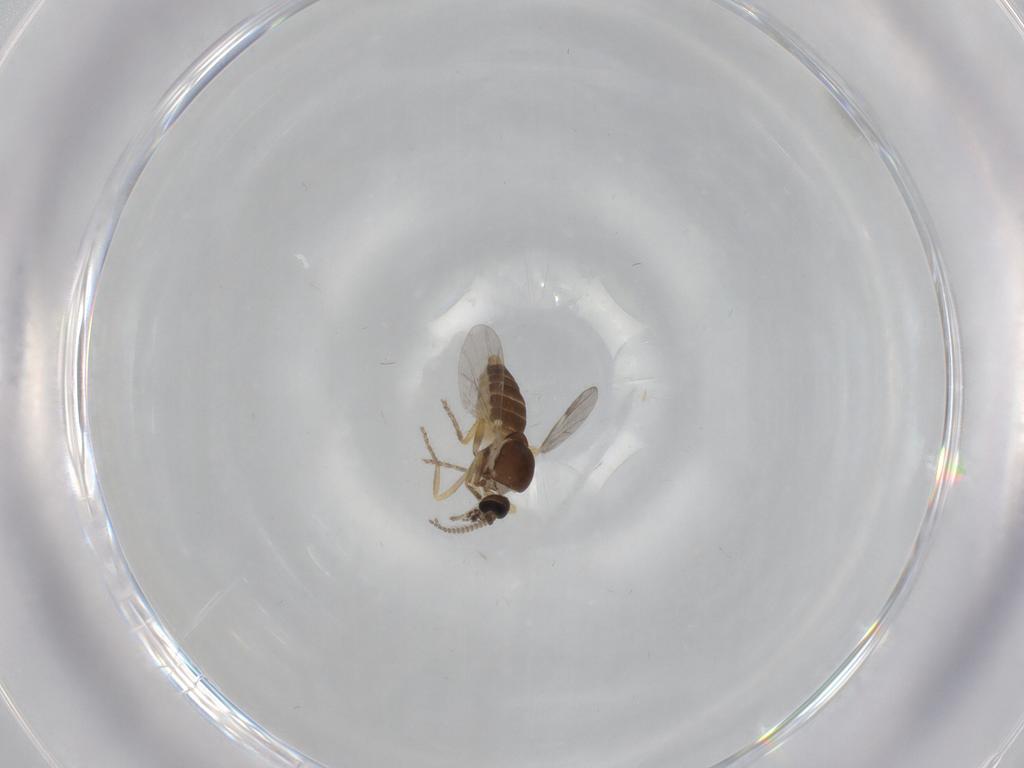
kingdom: Animalia
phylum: Arthropoda
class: Insecta
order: Diptera
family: Ceratopogonidae
